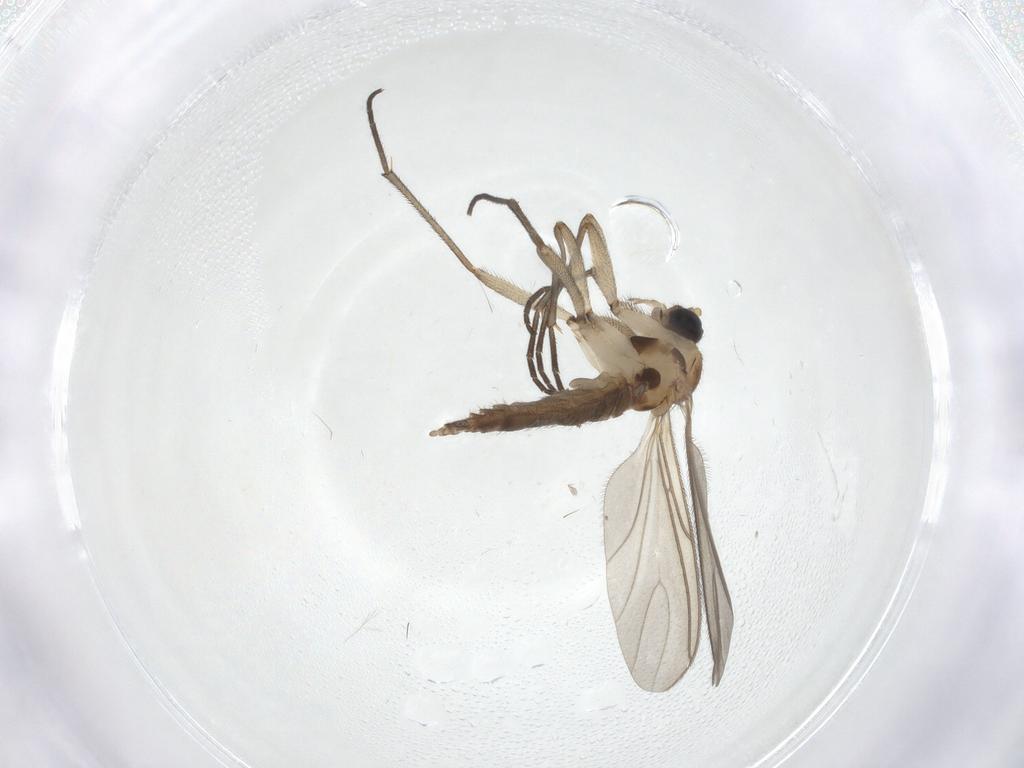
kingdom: Animalia
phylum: Arthropoda
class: Insecta
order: Diptera
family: Sciaridae
